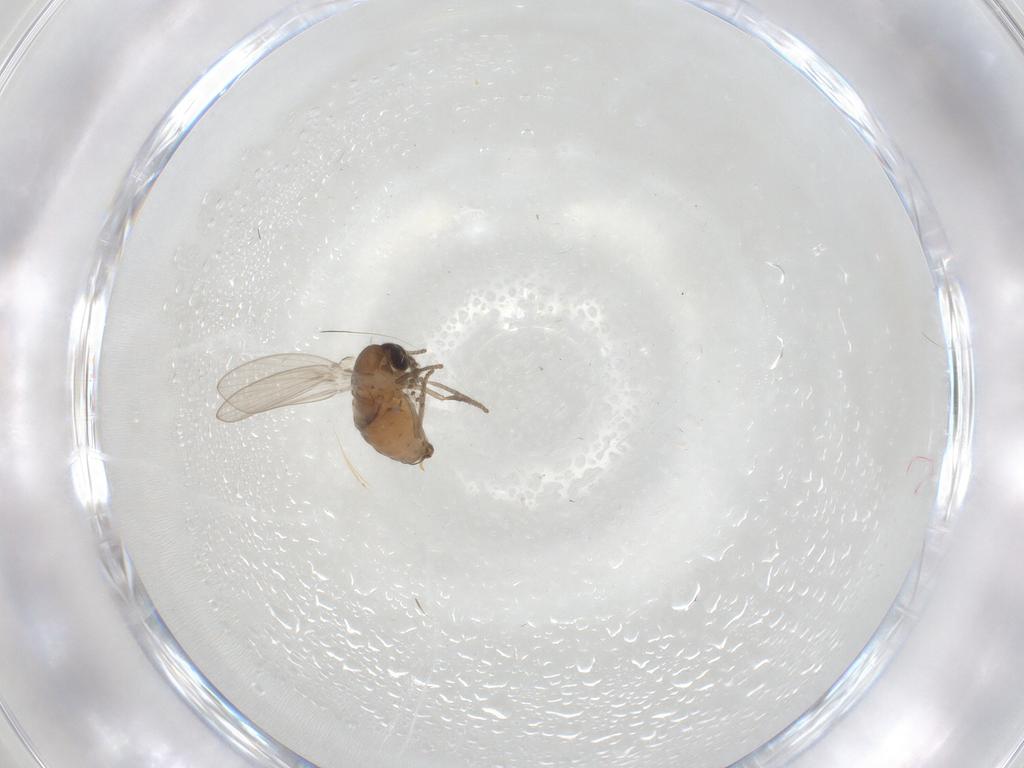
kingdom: Animalia
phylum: Arthropoda
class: Insecta
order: Diptera
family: Psychodidae
